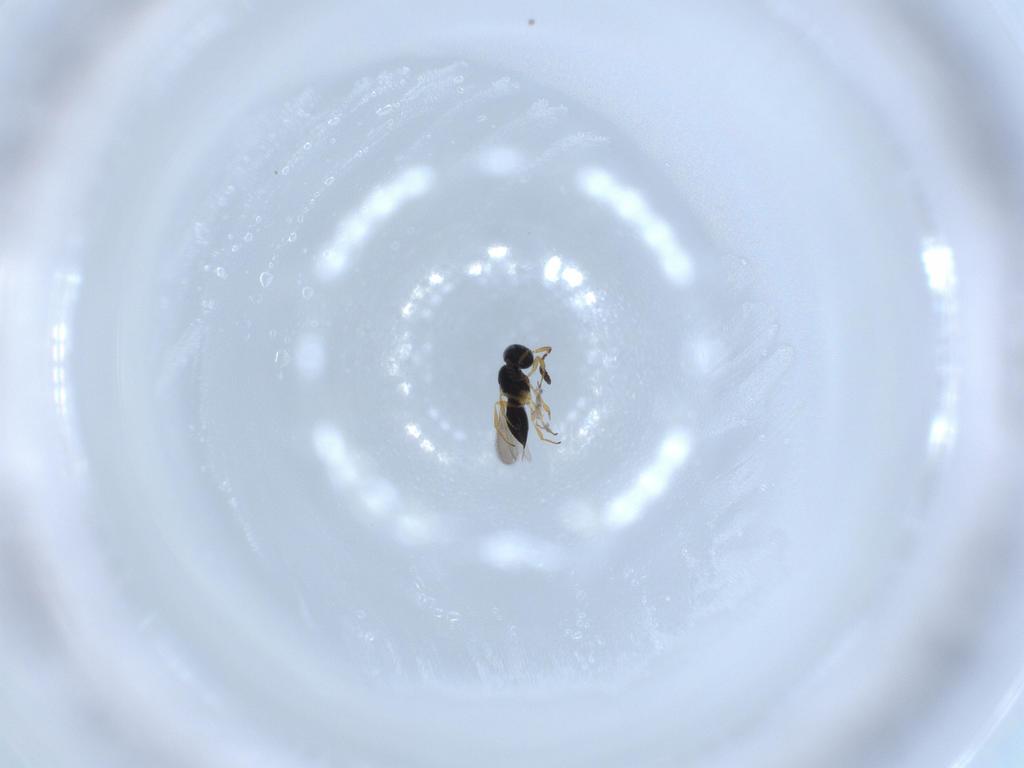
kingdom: Animalia
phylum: Arthropoda
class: Insecta
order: Hymenoptera
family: Scelionidae
